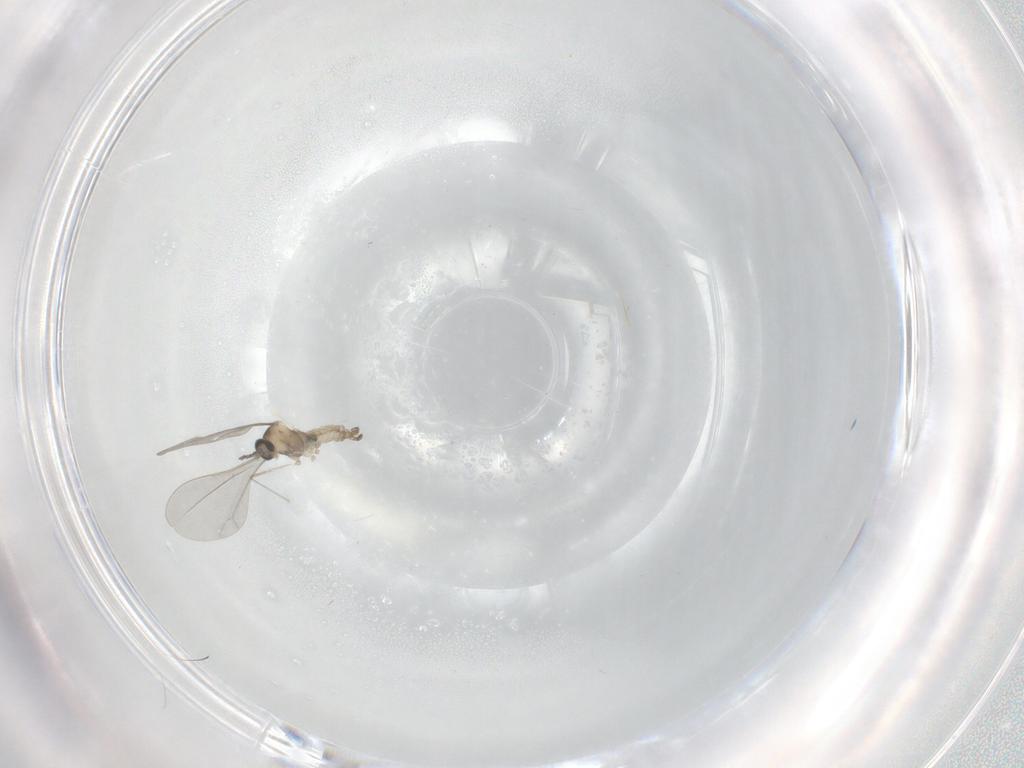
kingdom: Animalia
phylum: Arthropoda
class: Insecta
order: Diptera
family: Cecidomyiidae
